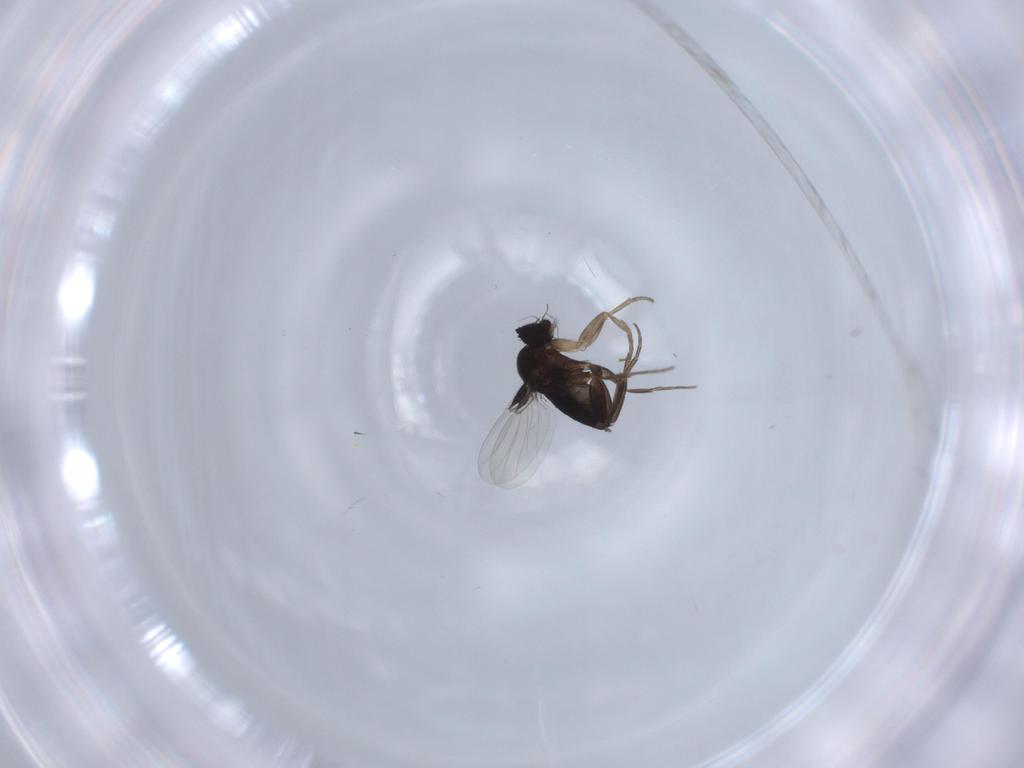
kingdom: Animalia
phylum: Arthropoda
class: Insecta
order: Diptera
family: Phoridae
